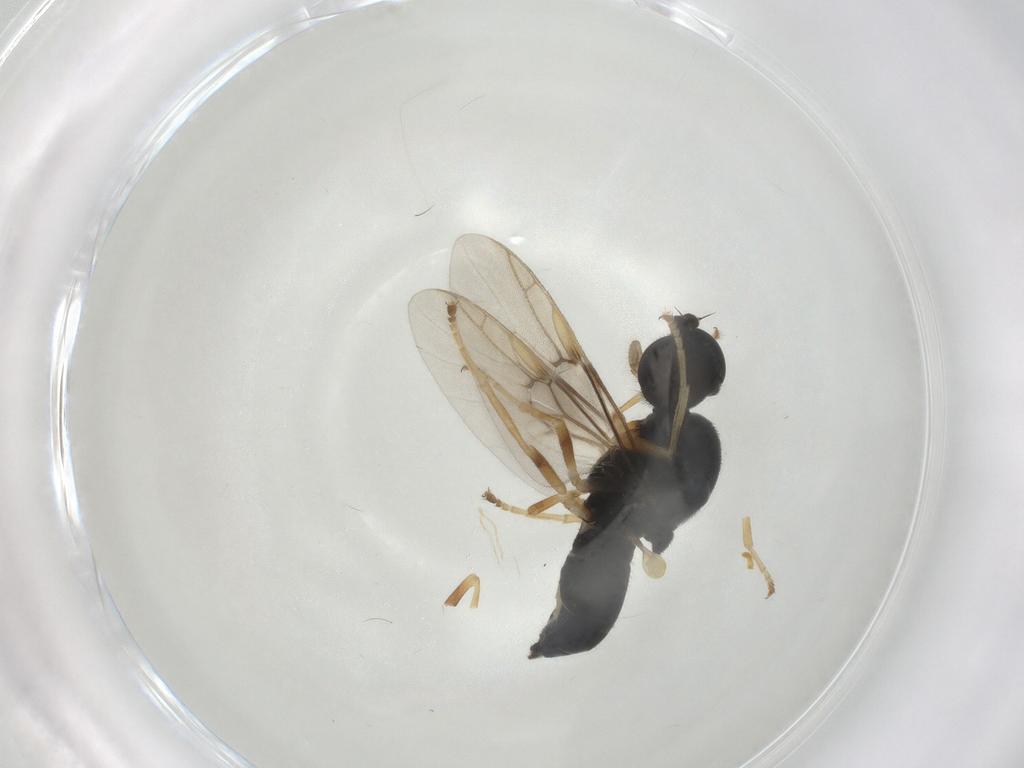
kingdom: Animalia
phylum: Arthropoda
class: Insecta
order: Diptera
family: Stratiomyidae
